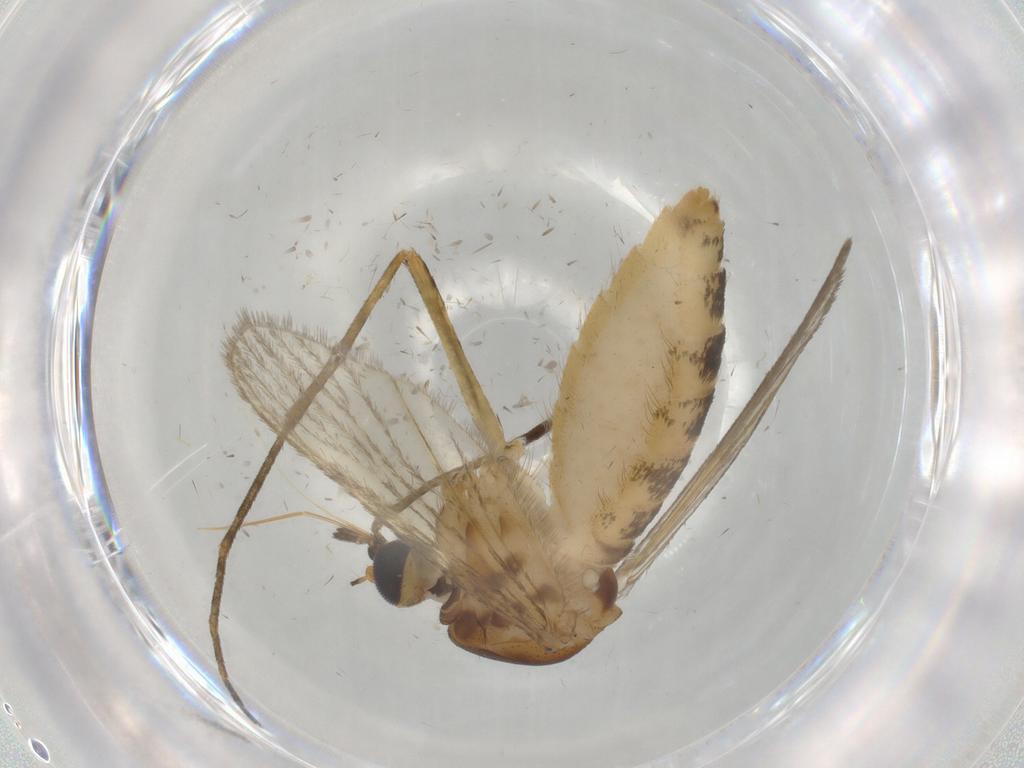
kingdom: Animalia
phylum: Arthropoda
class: Insecta
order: Diptera
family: Culicidae
